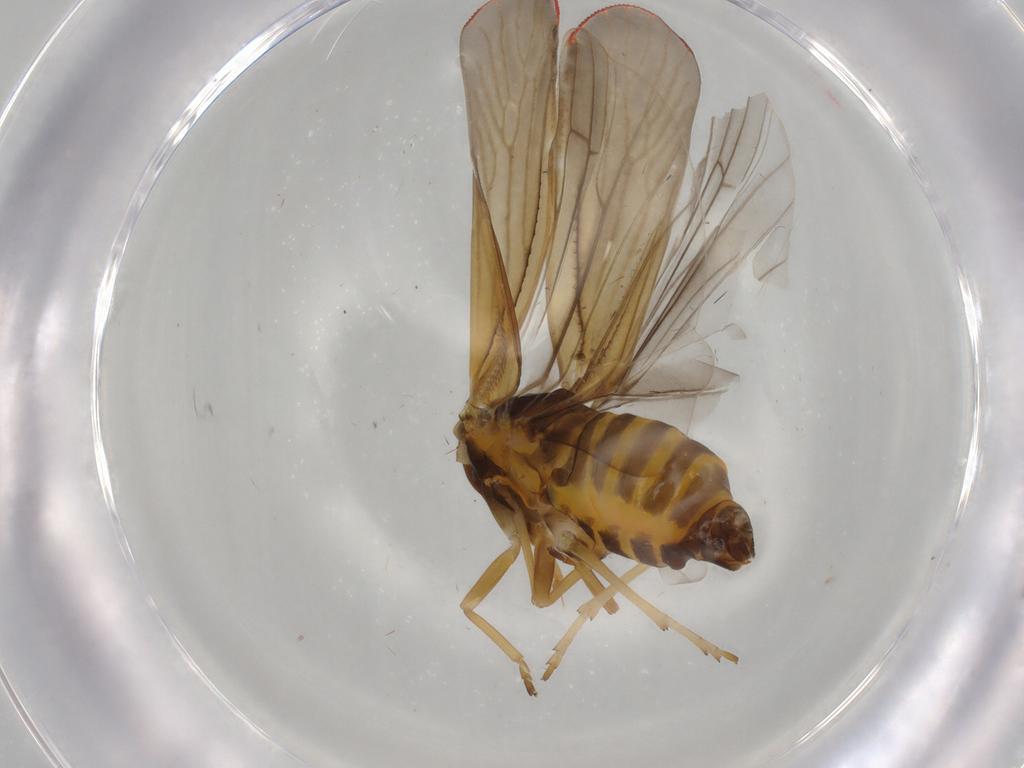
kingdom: Animalia
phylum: Arthropoda
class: Insecta
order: Hemiptera
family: Derbidae
